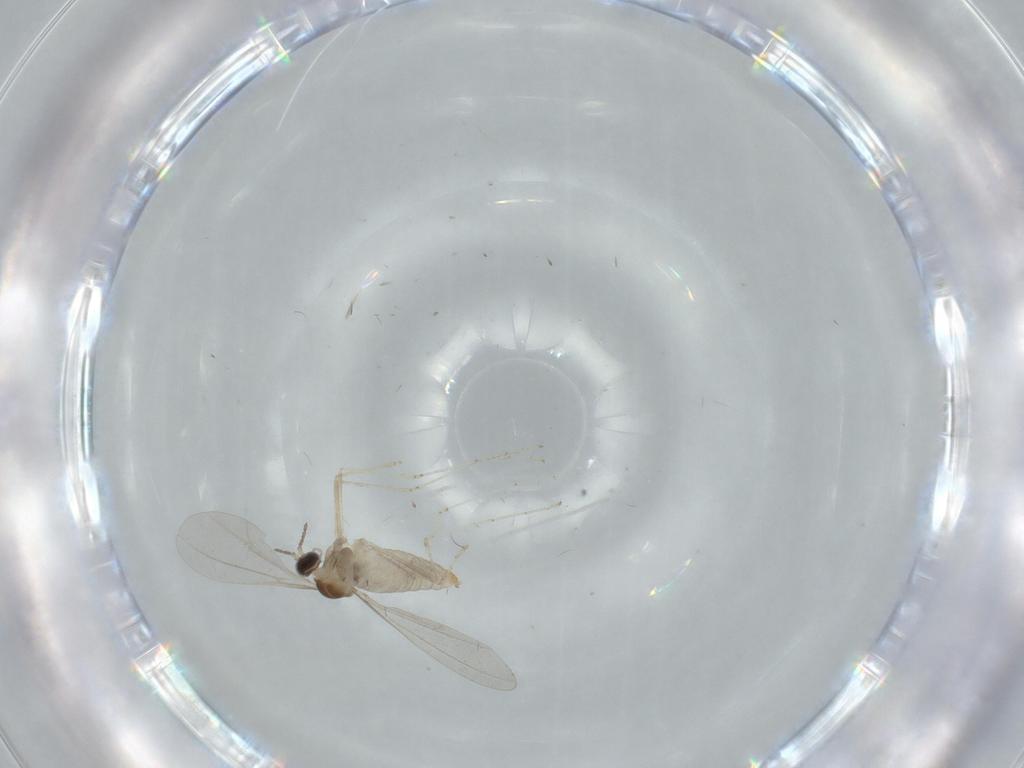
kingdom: Animalia
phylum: Arthropoda
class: Insecta
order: Diptera
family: Cecidomyiidae
